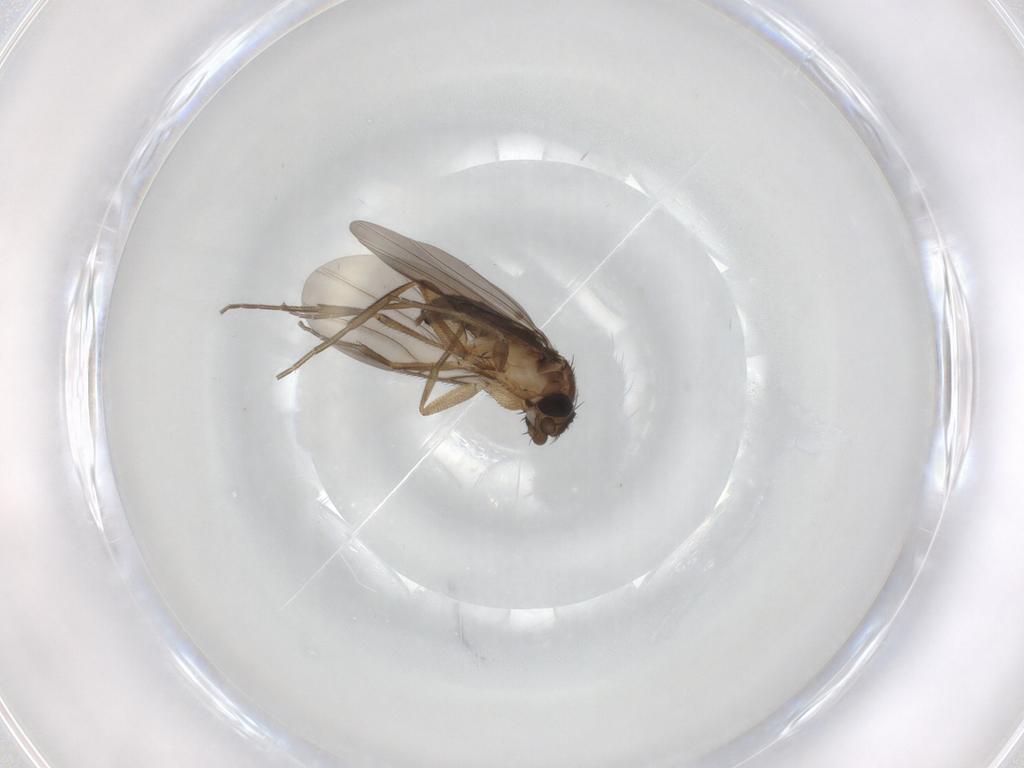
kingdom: Animalia
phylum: Arthropoda
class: Insecta
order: Diptera
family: Phoridae
